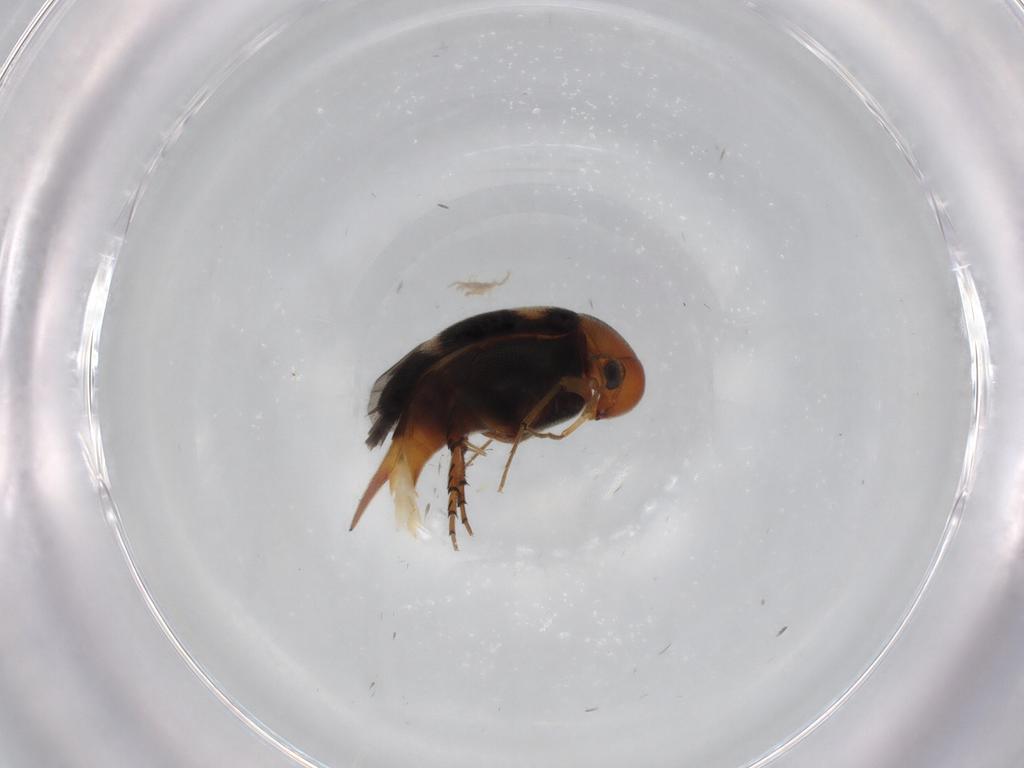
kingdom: Animalia
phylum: Arthropoda
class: Insecta
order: Coleoptera
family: Mordellidae
